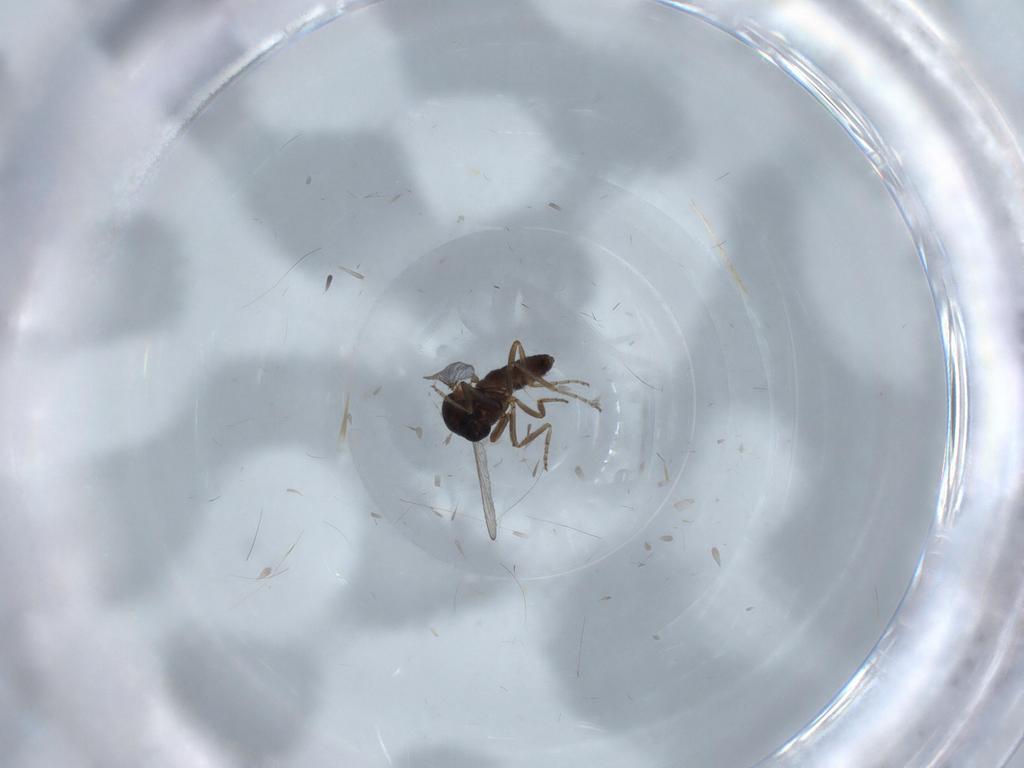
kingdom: Animalia
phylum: Arthropoda
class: Insecta
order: Diptera
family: Ceratopogonidae
